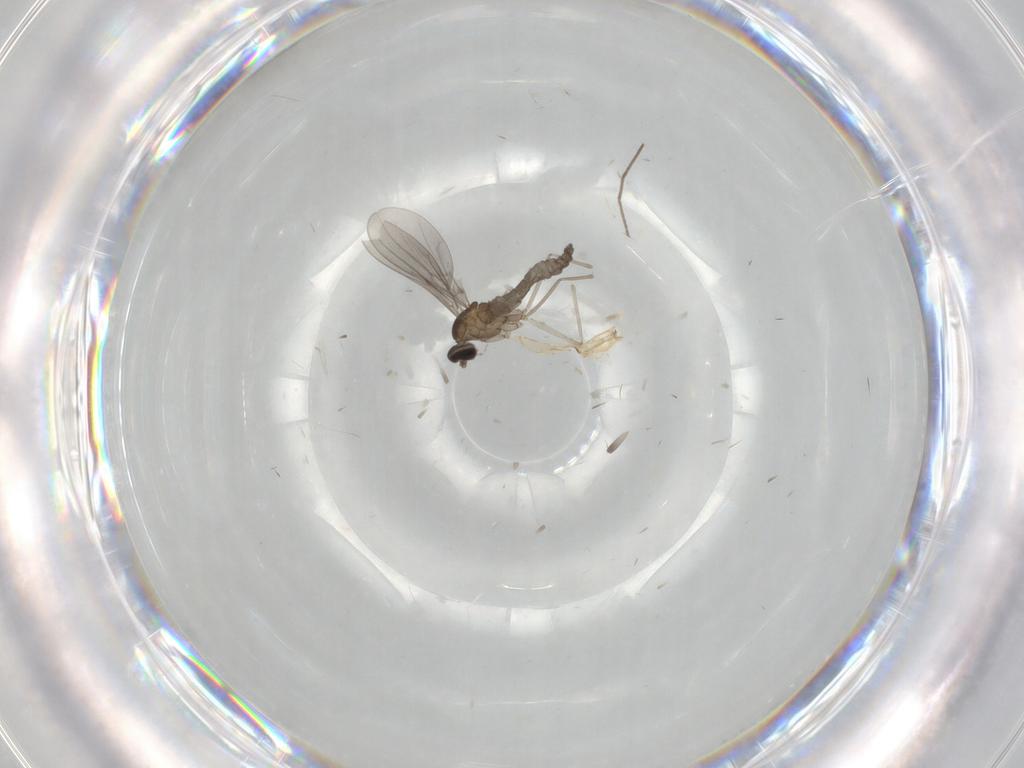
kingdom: Animalia
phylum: Arthropoda
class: Insecta
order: Diptera
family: Cecidomyiidae
